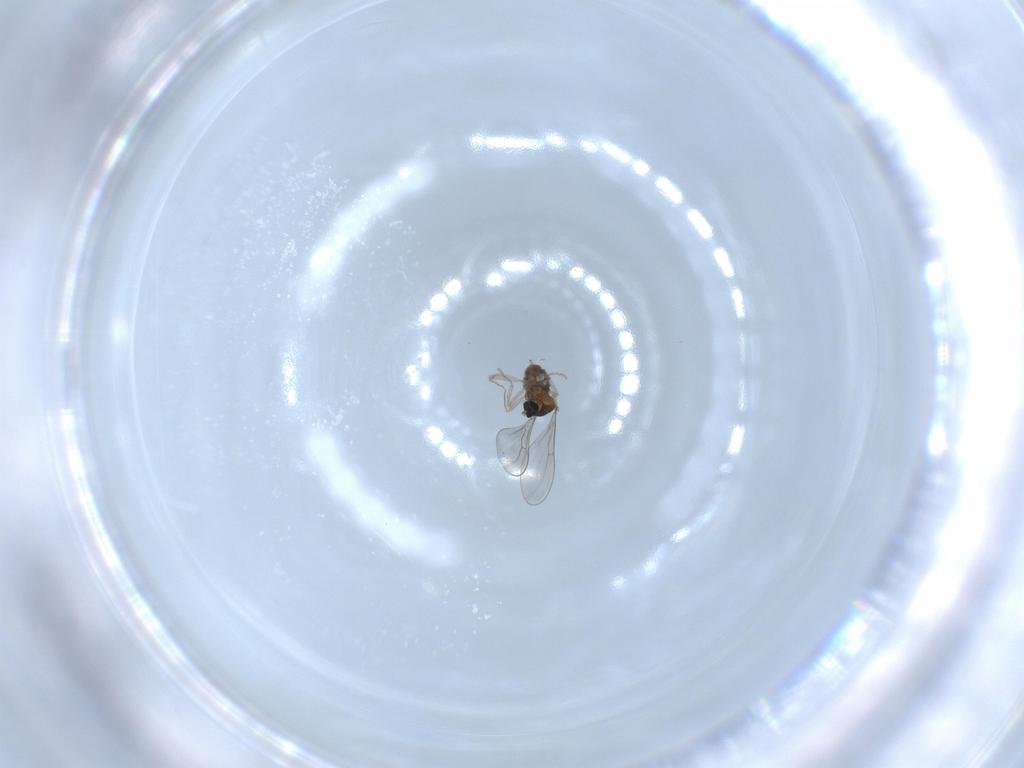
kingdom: Animalia
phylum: Arthropoda
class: Insecta
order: Diptera
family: Cecidomyiidae
